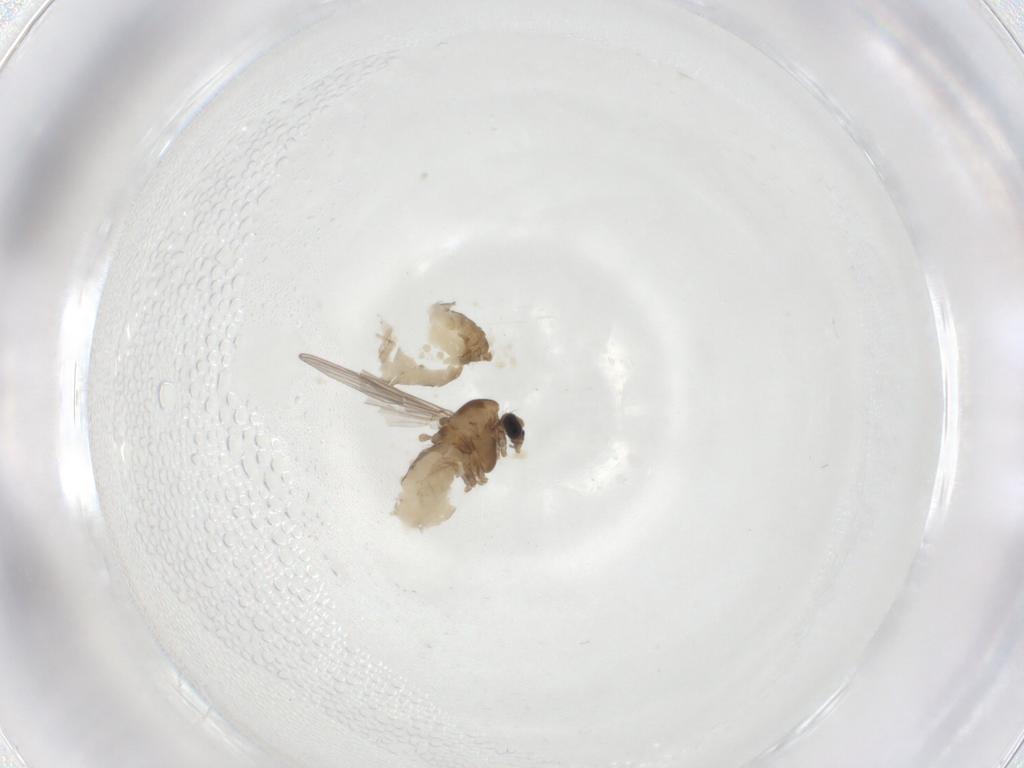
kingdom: Animalia
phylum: Arthropoda
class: Insecta
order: Diptera
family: Chironomidae
